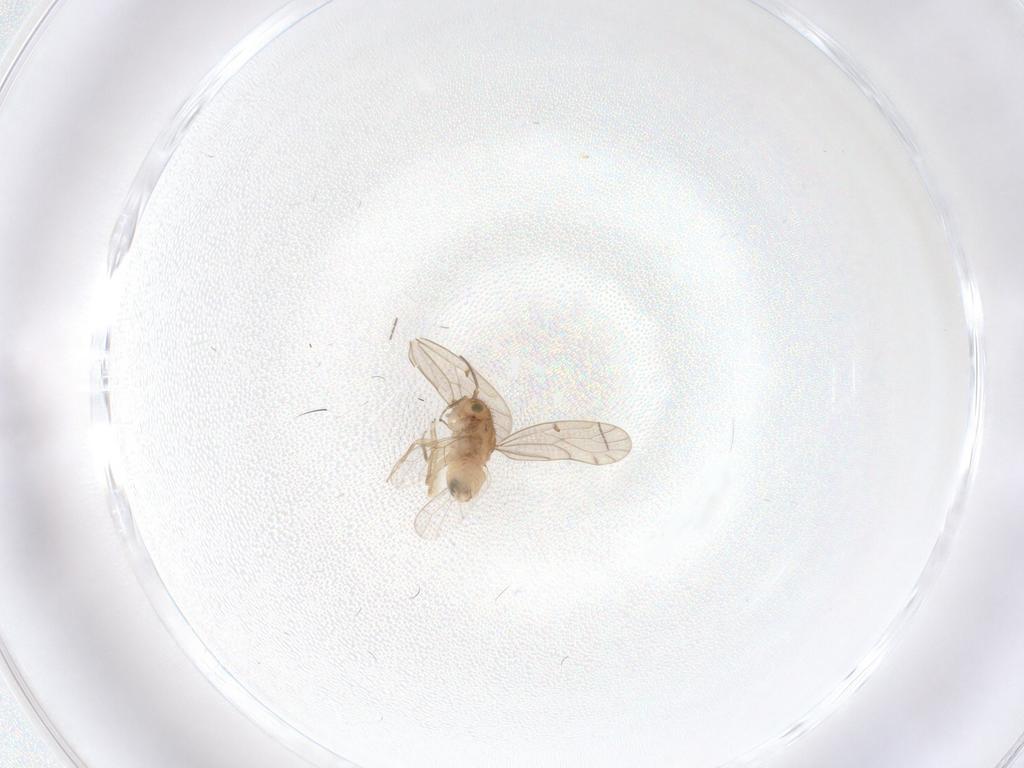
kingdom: Animalia
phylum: Arthropoda
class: Insecta
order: Psocodea
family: Ectopsocidae
